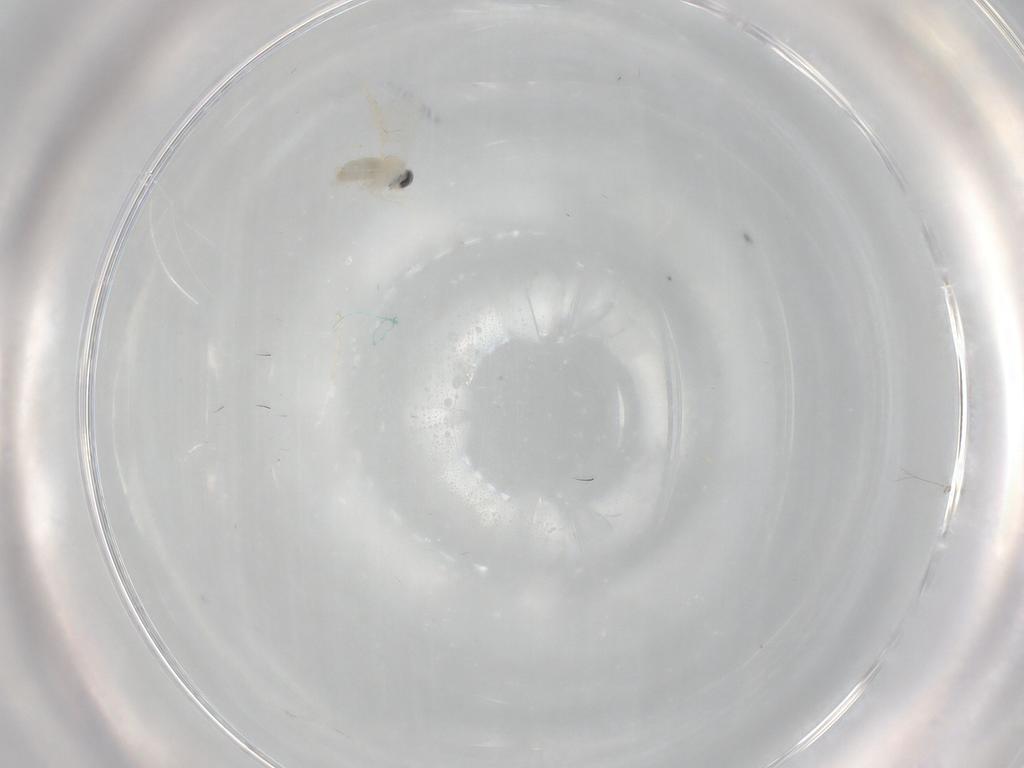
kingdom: Animalia
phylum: Arthropoda
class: Insecta
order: Diptera
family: Cecidomyiidae
